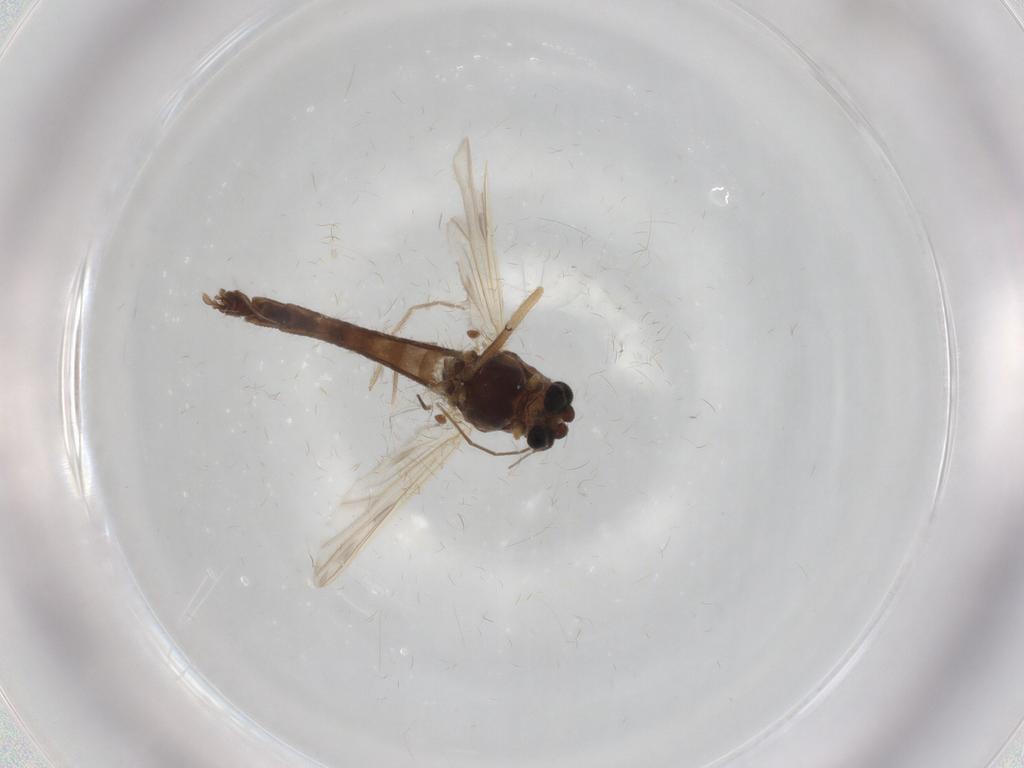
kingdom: Animalia
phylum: Arthropoda
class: Insecta
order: Diptera
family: Chironomidae
